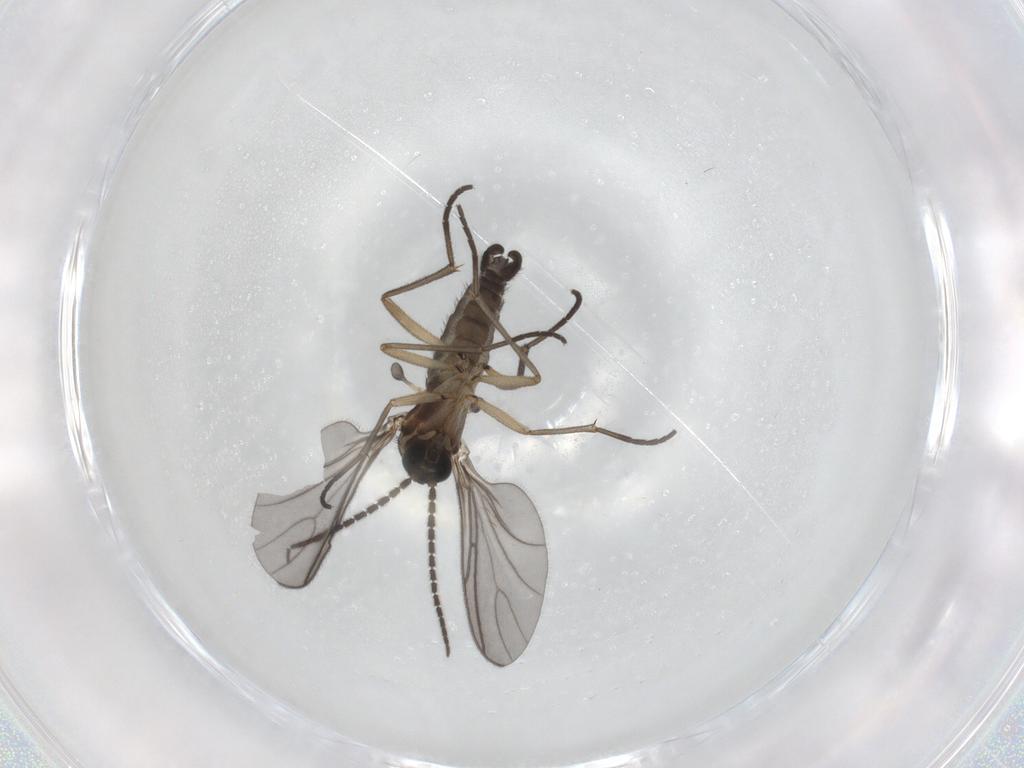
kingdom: Animalia
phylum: Arthropoda
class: Insecta
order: Diptera
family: Sciaridae
